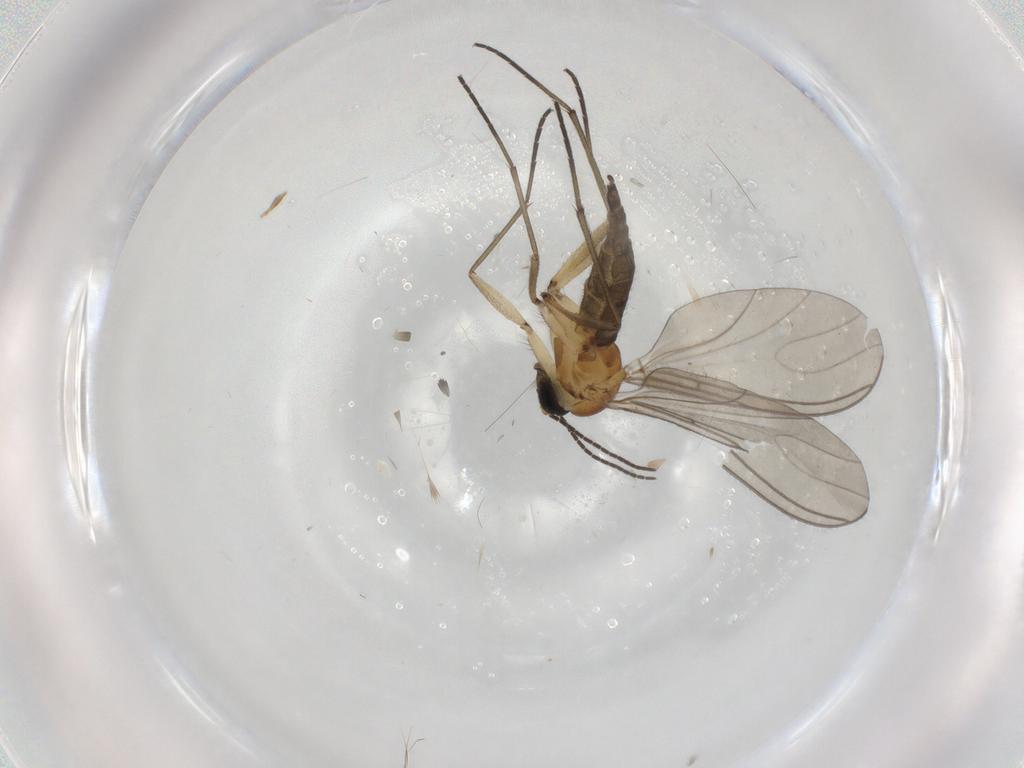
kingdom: Animalia
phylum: Arthropoda
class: Insecta
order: Diptera
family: Sciaridae
